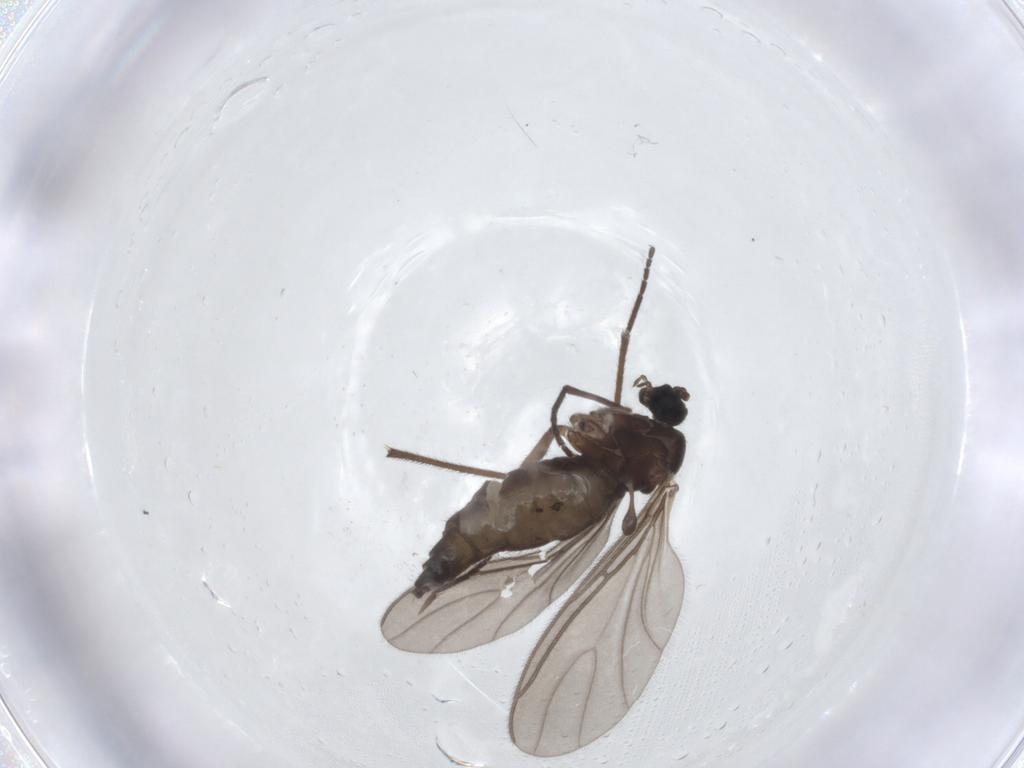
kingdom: Animalia
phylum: Arthropoda
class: Insecta
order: Diptera
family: Sciaridae
